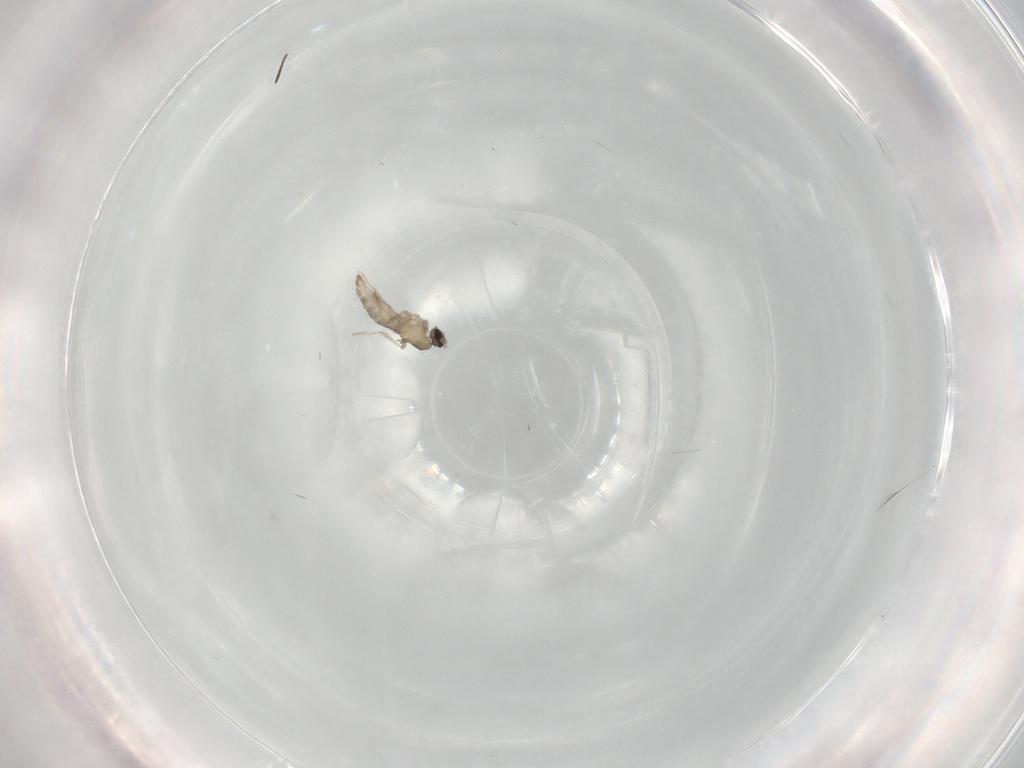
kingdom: Animalia
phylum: Arthropoda
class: Insecta
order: Diptera
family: Cecidomyiidae
